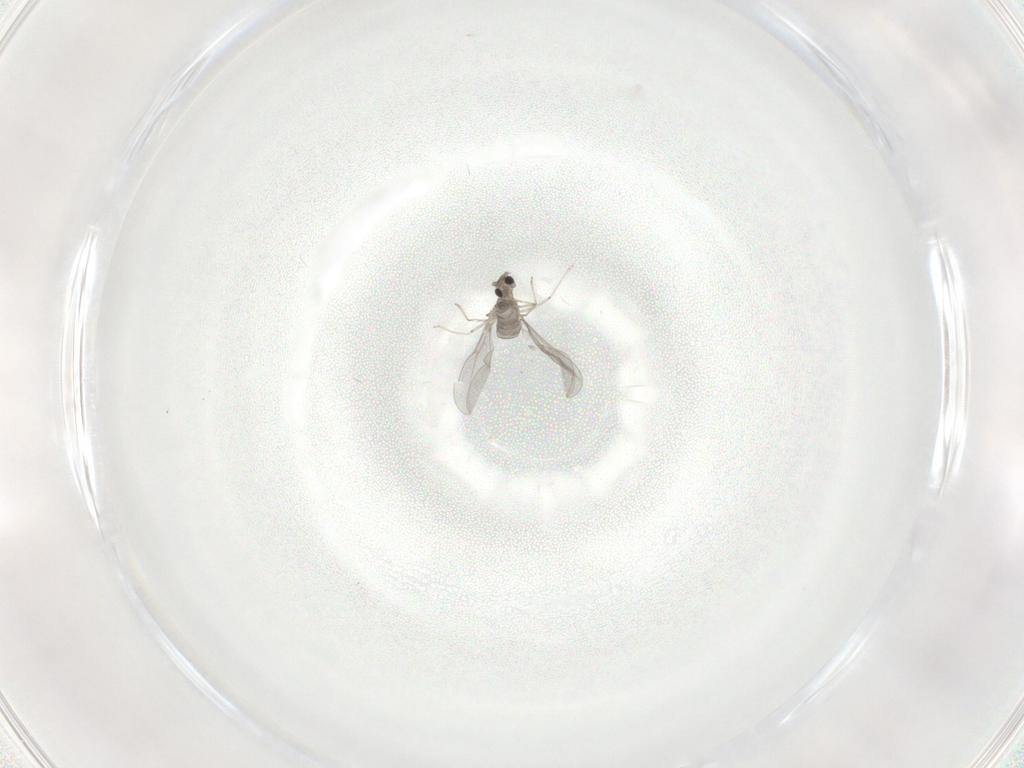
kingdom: Animalia
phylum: Arthropoda
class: Insecta
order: Diptera
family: Cecidomyiidae
